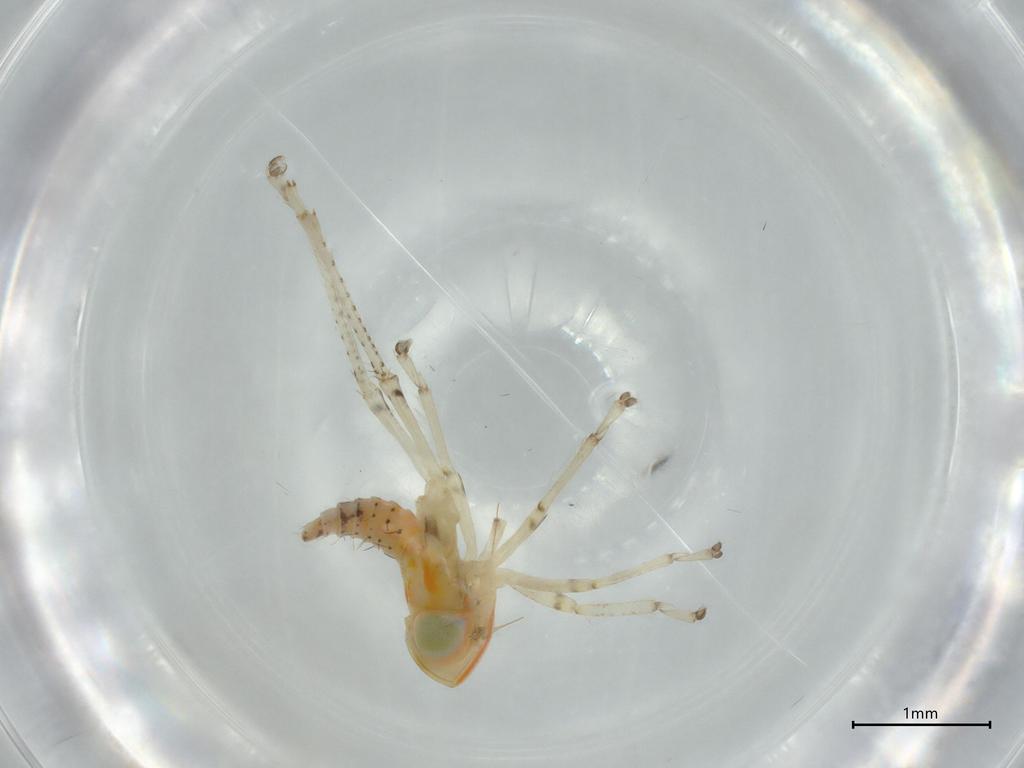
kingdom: Animalia
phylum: Arthropoda
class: Insecta
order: Hemiptera
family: Cicadellidae
